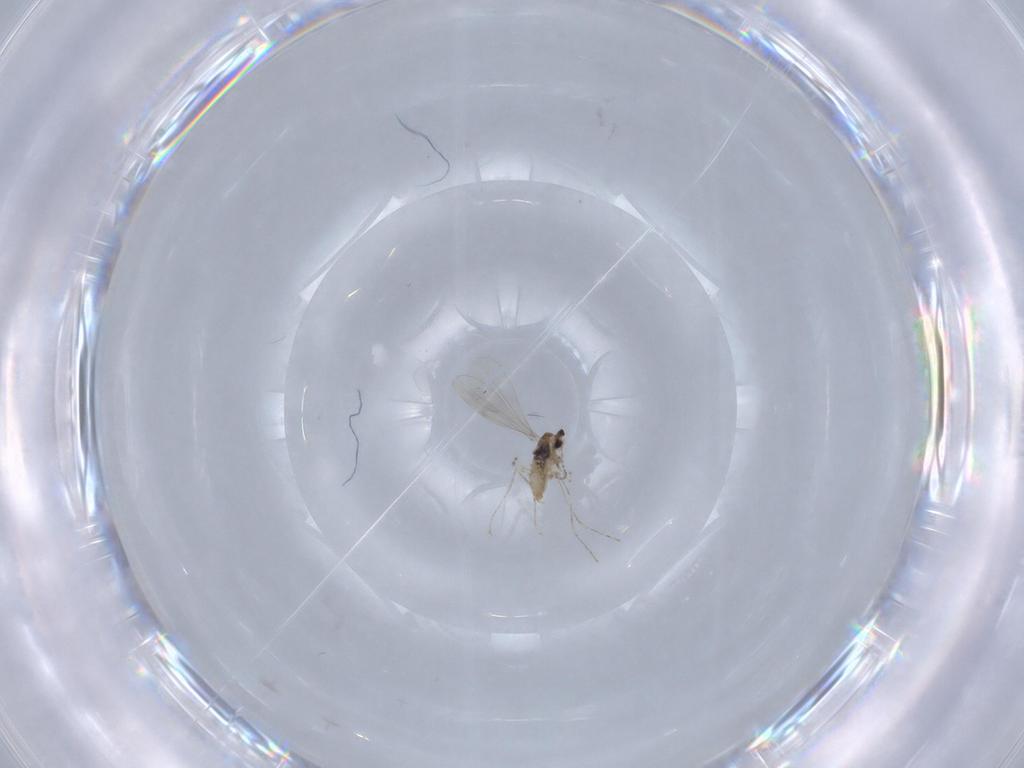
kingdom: Animalia
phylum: Arthropoda
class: Insecta
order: Diptera
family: Cecidomyiidae
